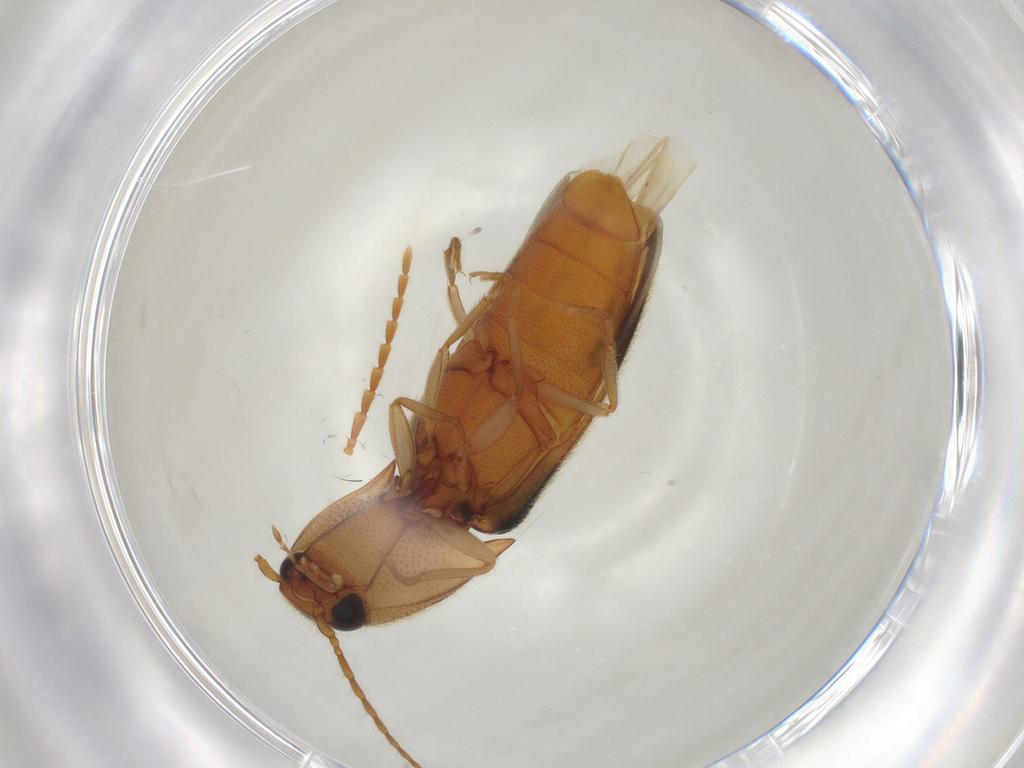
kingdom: Animalia
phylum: Arthropoda
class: Insecta
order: Coleoptera
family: Elateridae
